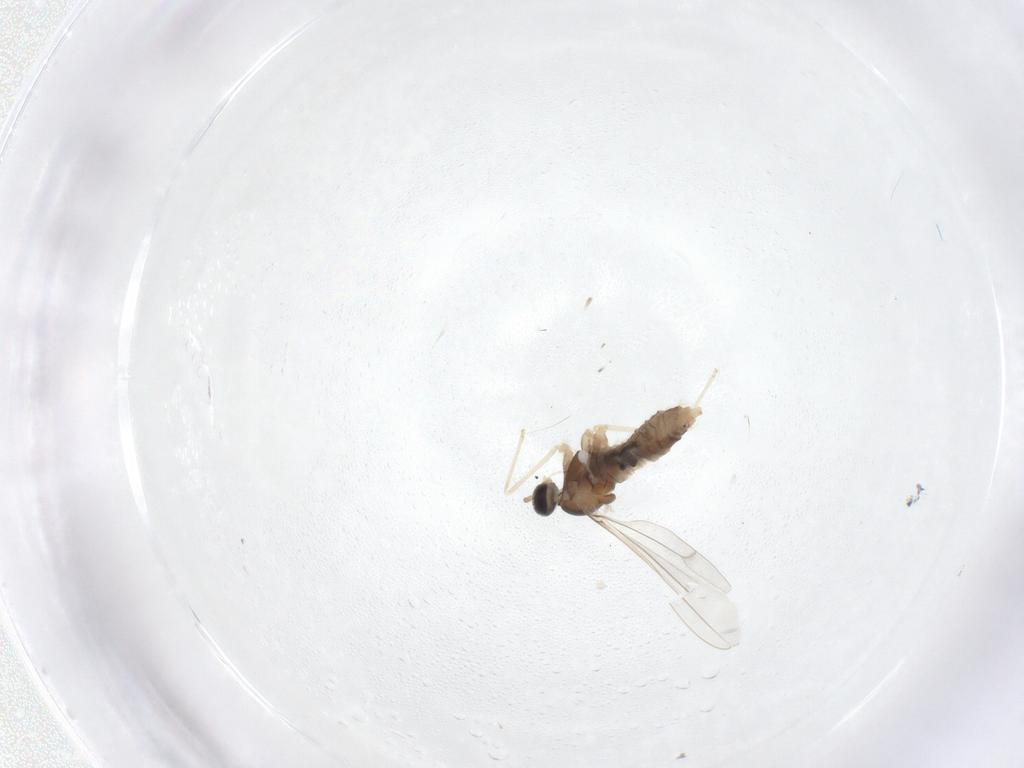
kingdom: Animalia
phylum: Arthropoda
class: Insecta
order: Diptera
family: Cecidomyiidae
